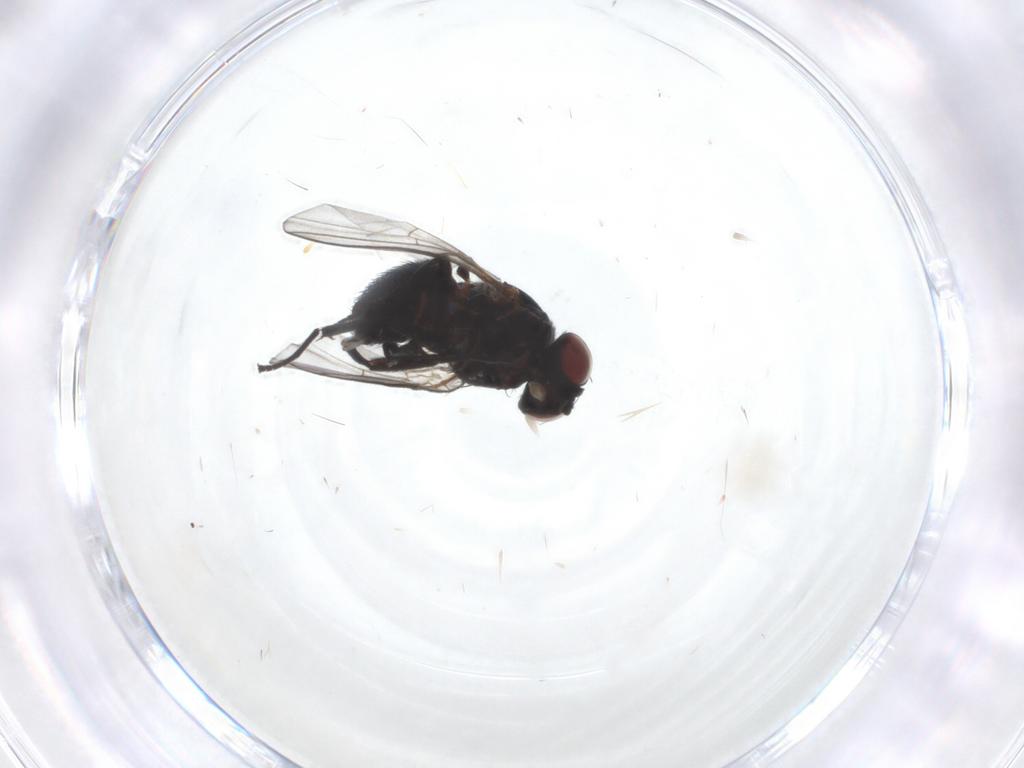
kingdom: Animalia
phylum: Arthropoda
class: Insecta
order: Diptera
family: Agromyzidae
